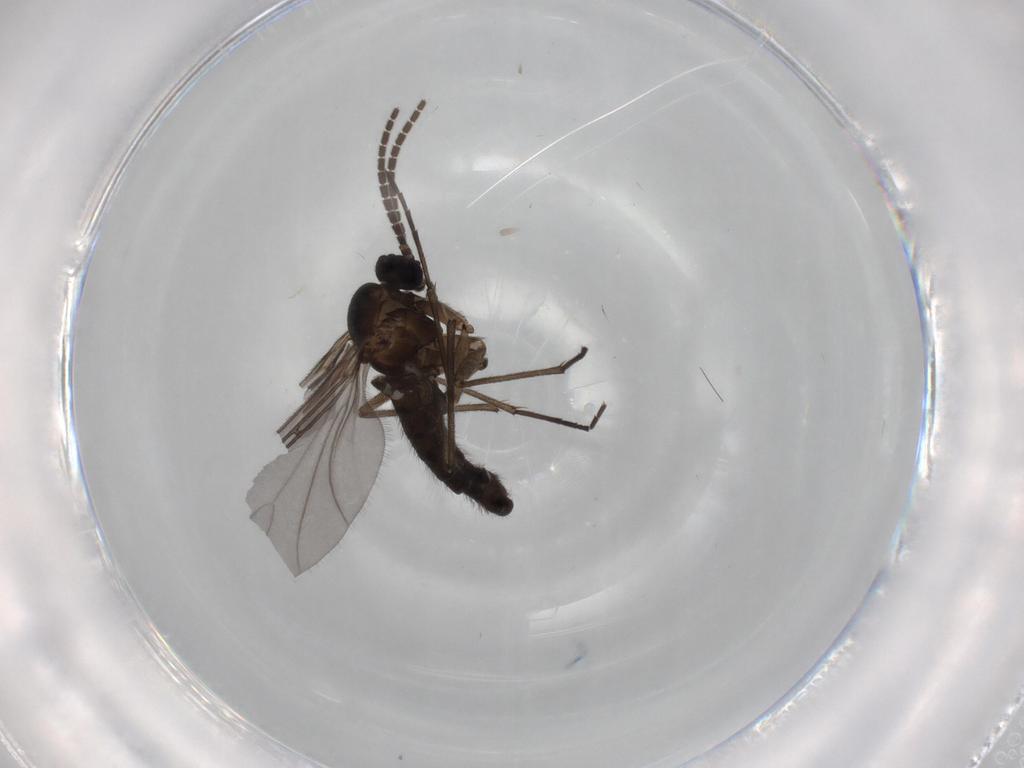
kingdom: Animalia
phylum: Arthropoda
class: Insecta
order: Diptera
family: Sciaridae
